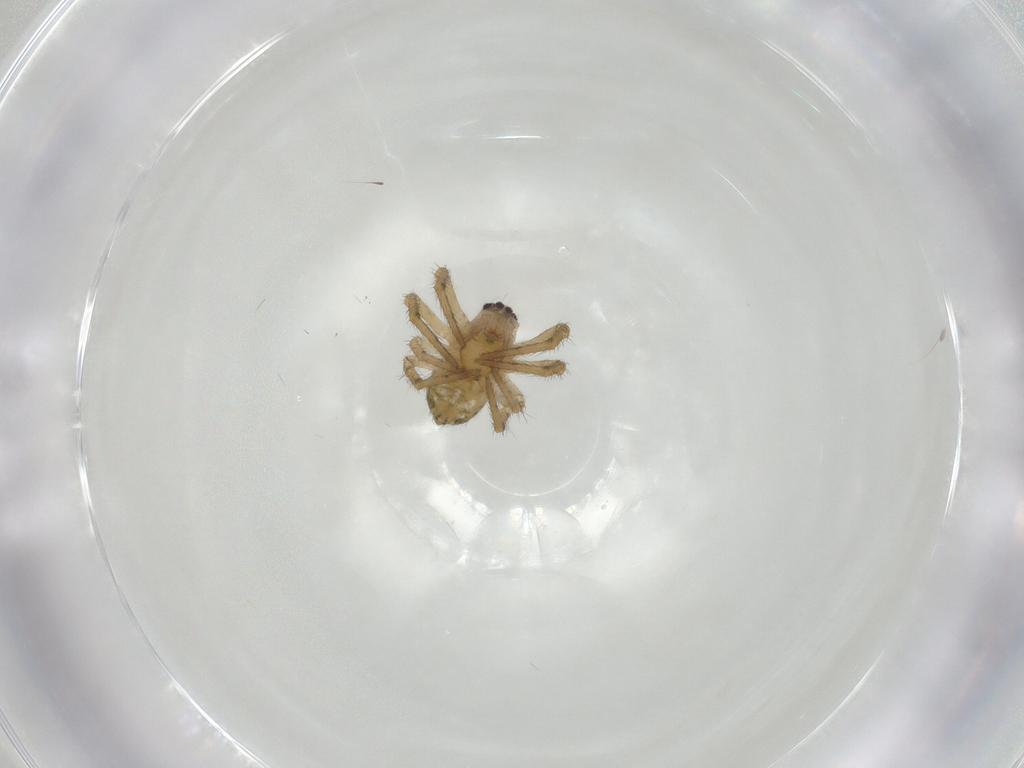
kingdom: Animalia
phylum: Arthropoda
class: Arachnida
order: Araneae
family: Araneidae
